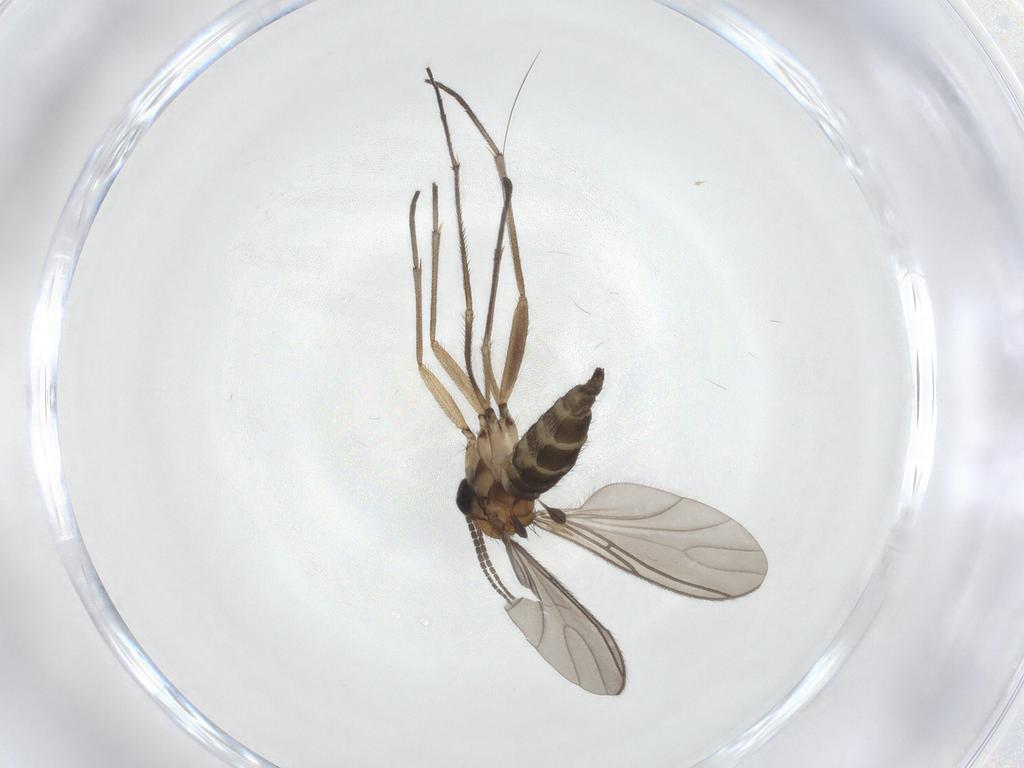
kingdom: Animalia
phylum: Arthropoda
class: Insecta
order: Diptera
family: Sciaridae
